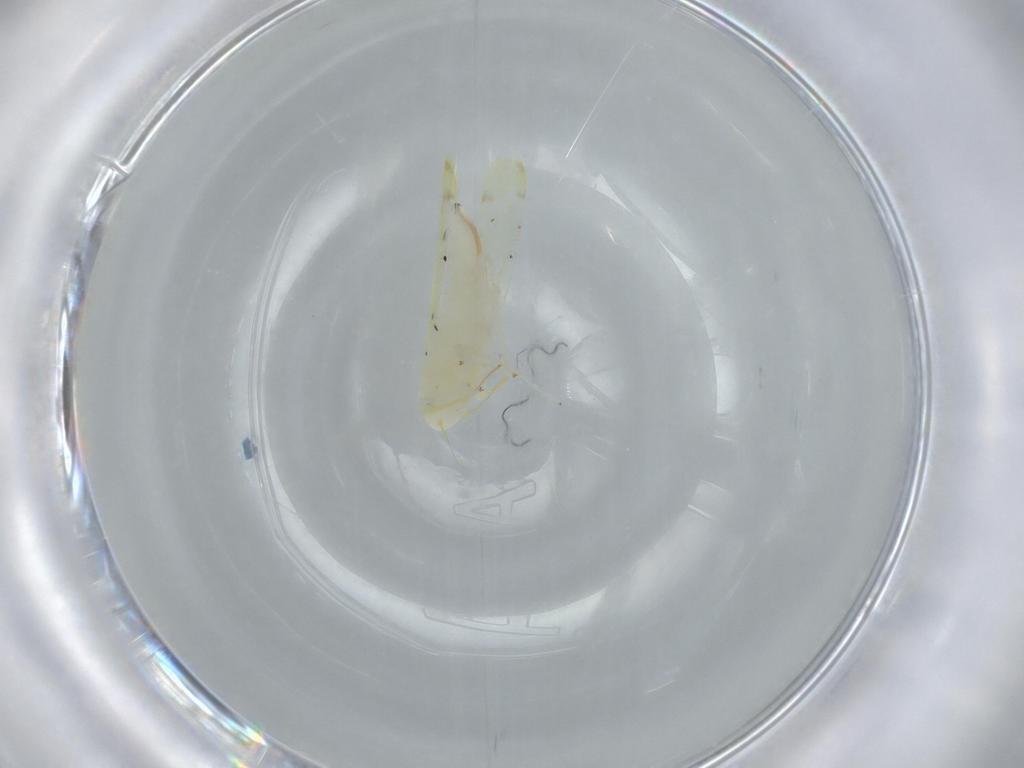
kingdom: Animalia
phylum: Arthropoda
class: Insecta
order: Hemiptera
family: Cicadellidae
